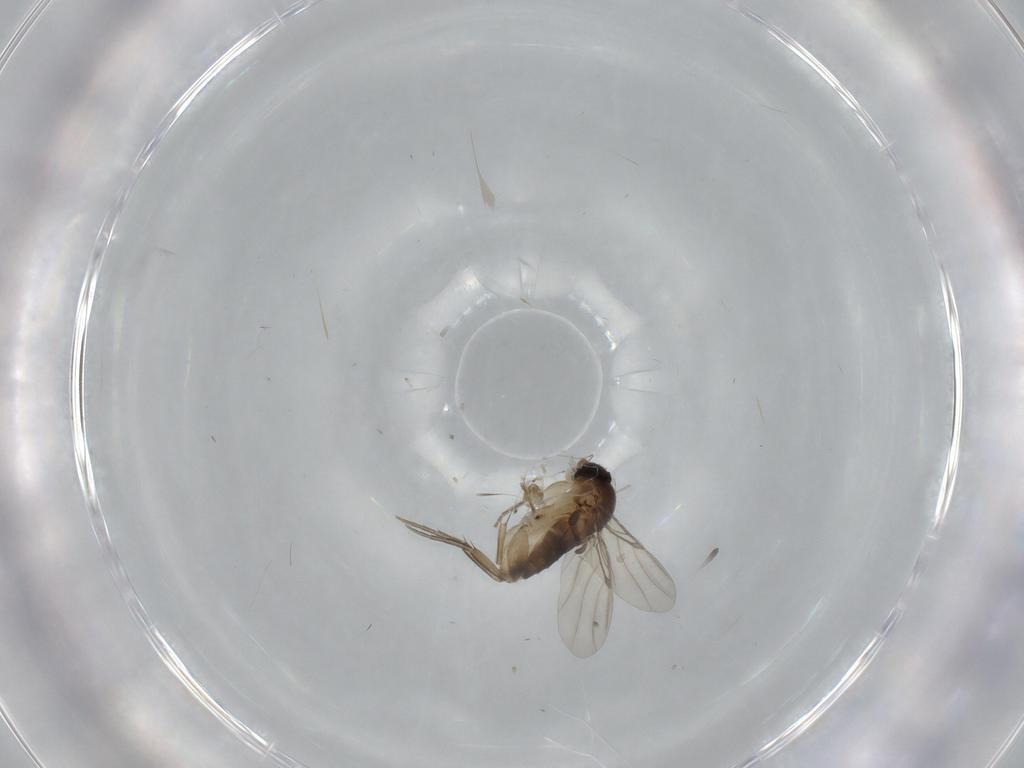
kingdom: Animalia
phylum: Arthropoda
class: Insecta
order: Diptera
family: Phoridae
